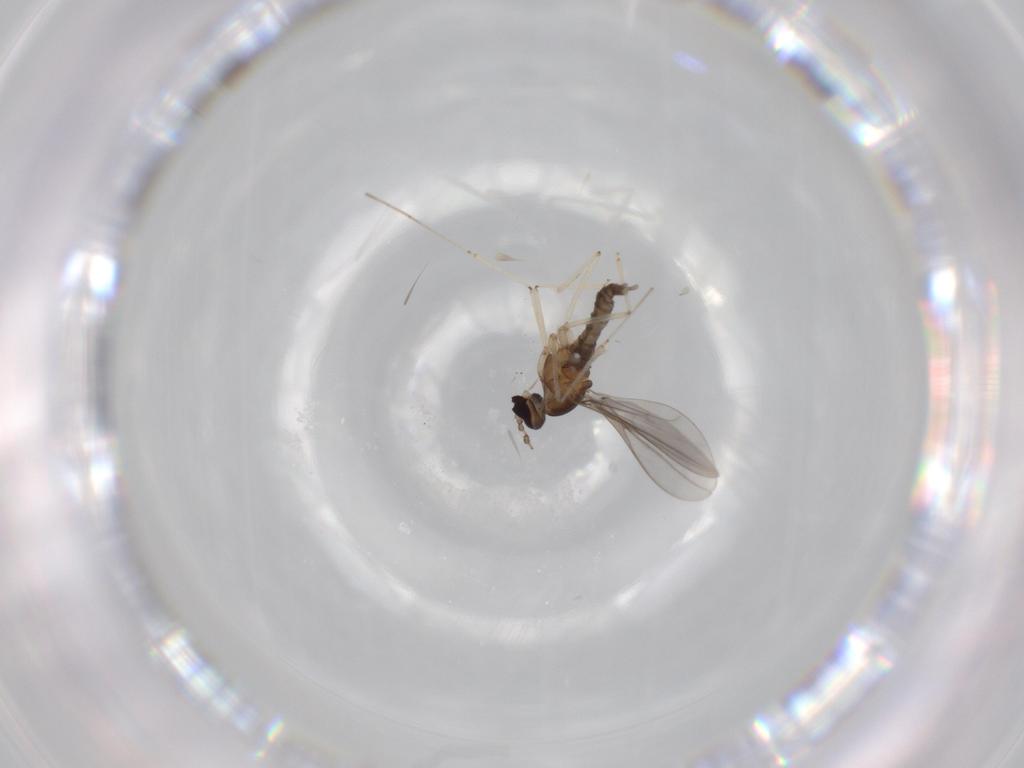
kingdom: Animalia
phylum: Arthropoda
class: Insecta
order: Diptera
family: Cecidomyiidae
